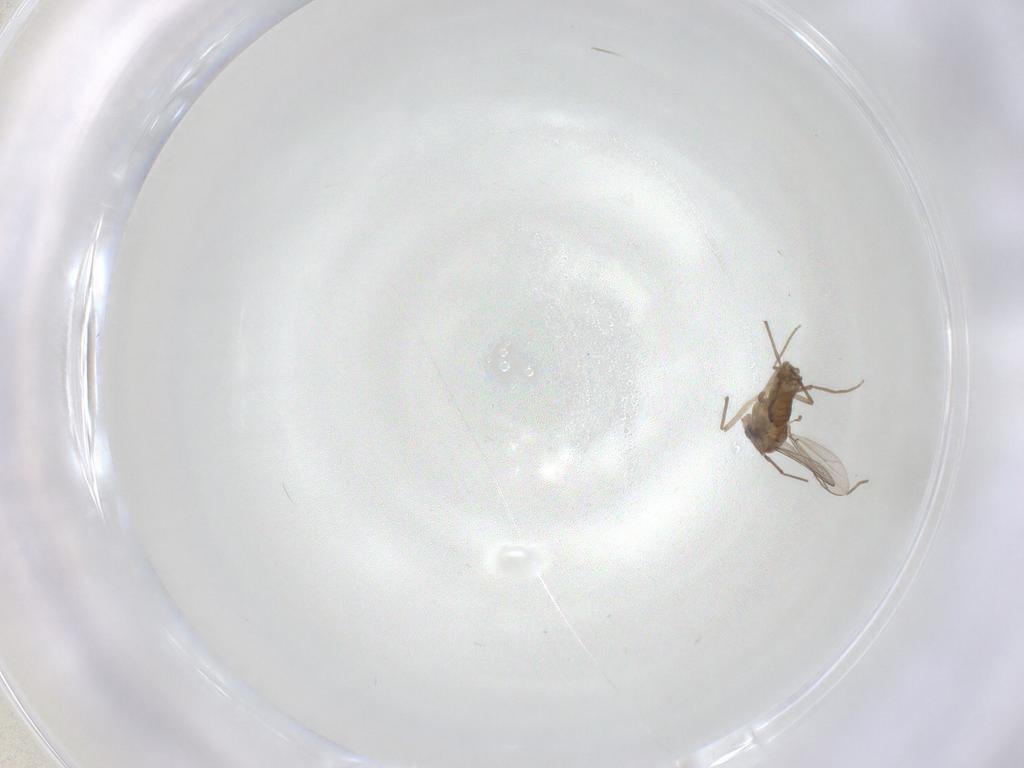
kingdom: Animalia
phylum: Arthropoda
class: Insecta
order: Diptera
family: Chironomidae
